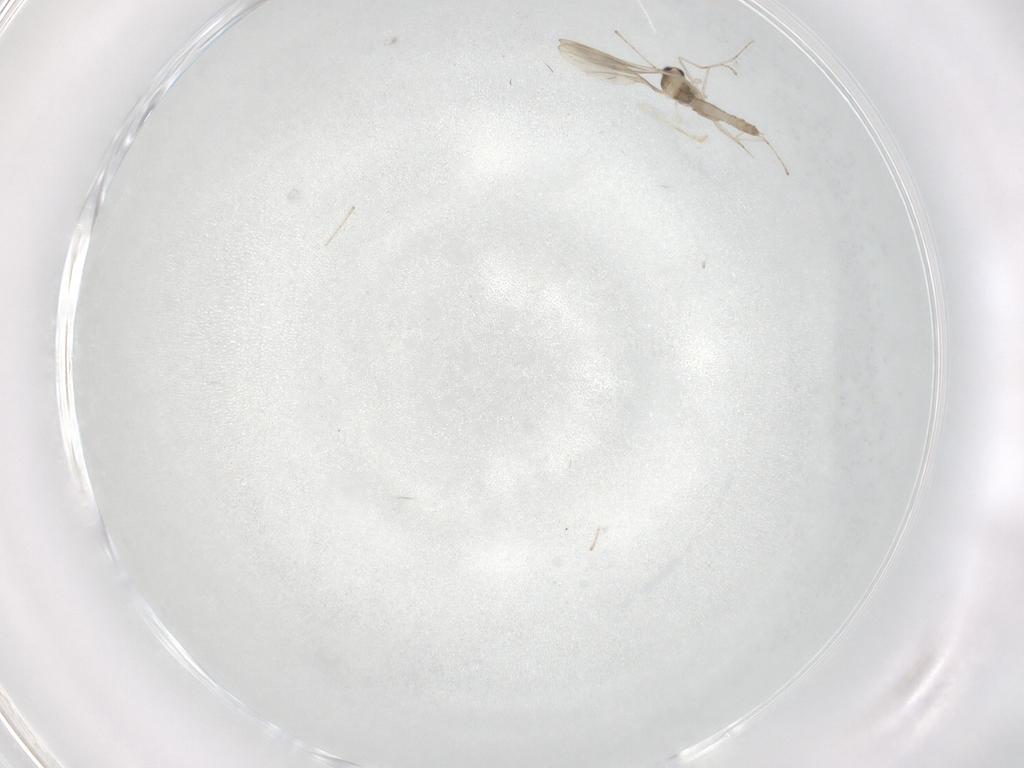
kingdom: Animalia
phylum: Arthropoda
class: Insecta
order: Diptera
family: Cecidomyiidae
